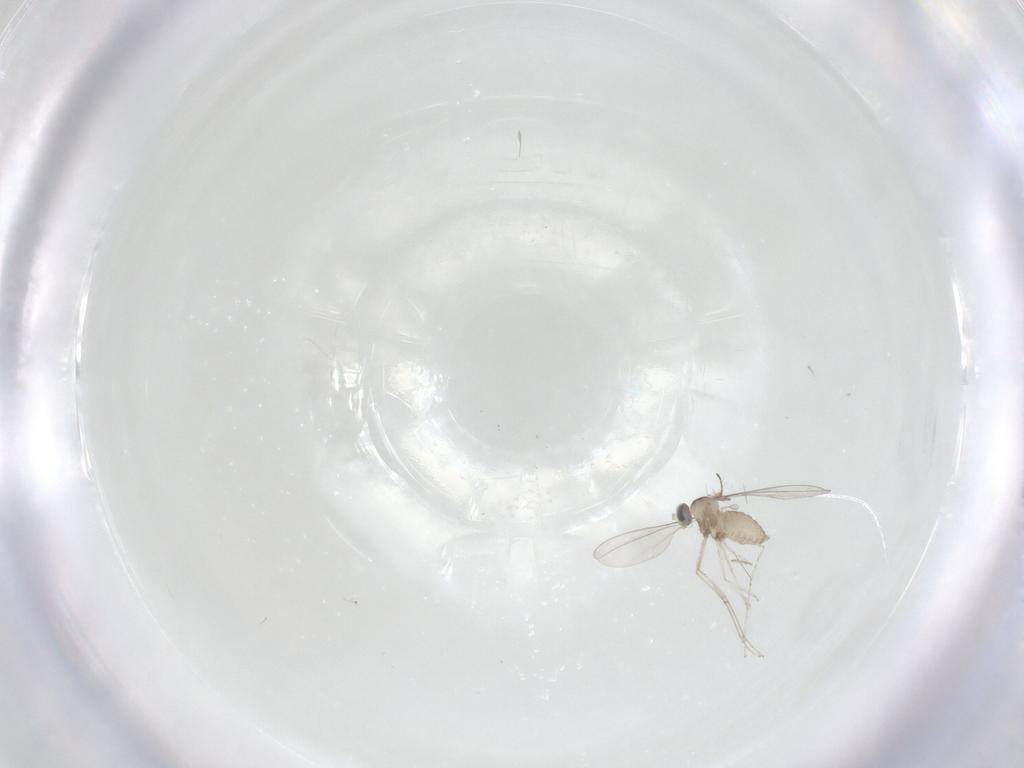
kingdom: Animalia
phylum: Arthropoda
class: Insecta
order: Diptera
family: Cecidomyiidae
